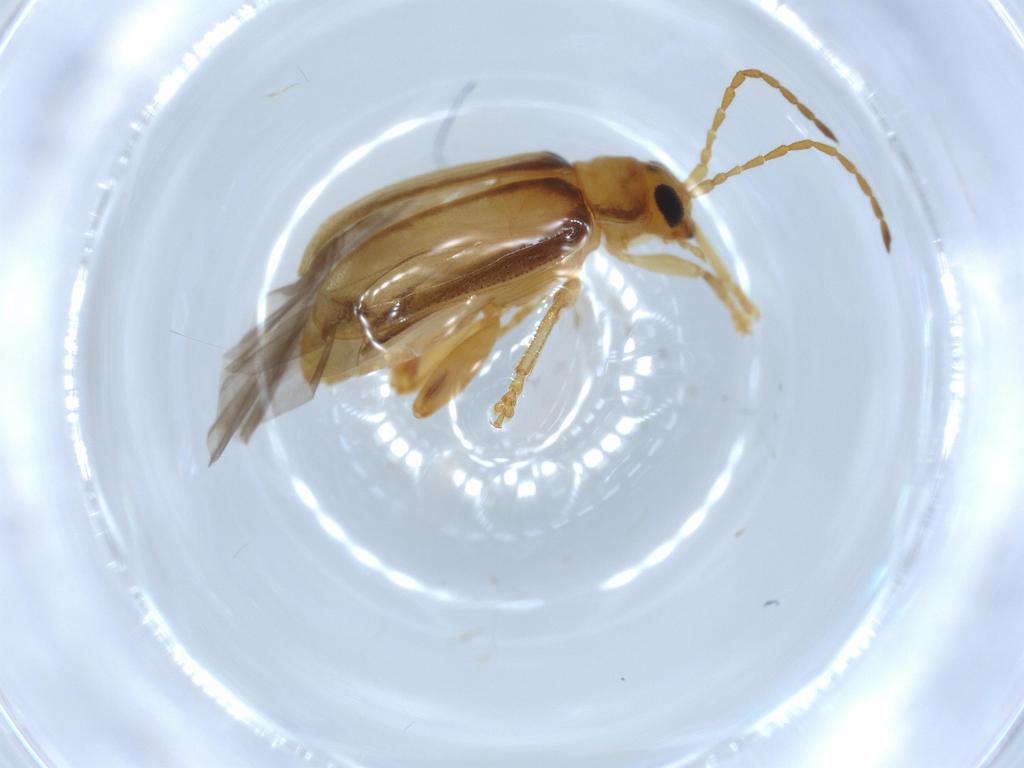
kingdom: Animalia
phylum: Arthropoda
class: Insecta
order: Coleoptera
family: Chrysomelidae
